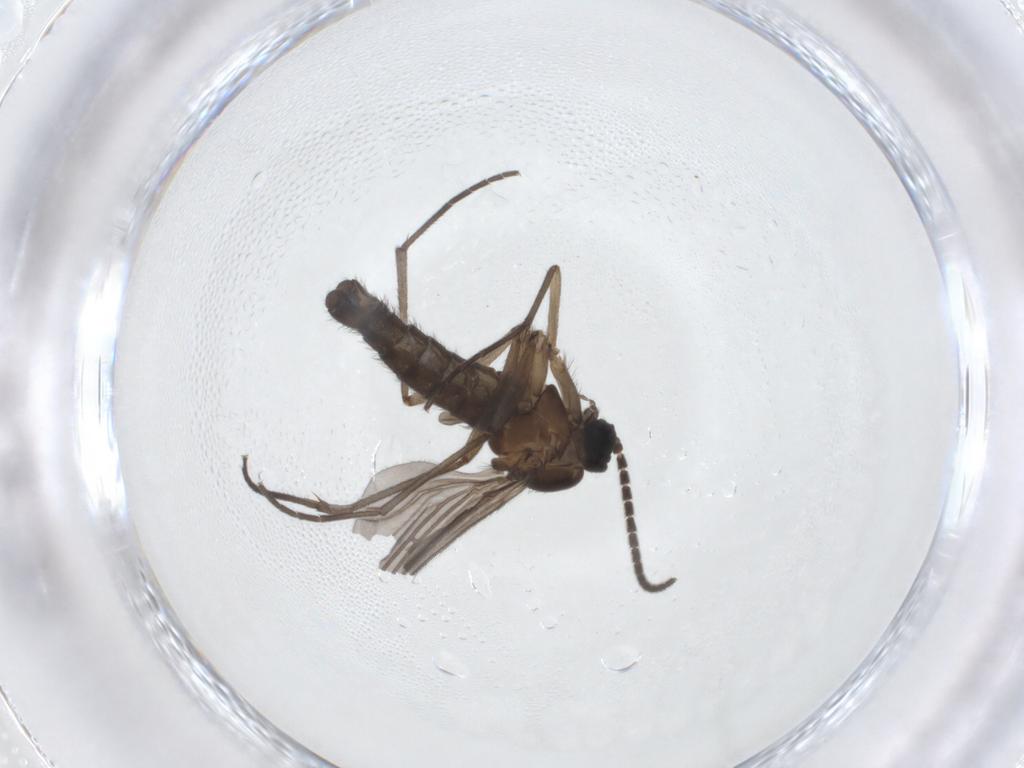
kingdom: Animalia
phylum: Arthropoda
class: Insecta
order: Diptera
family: Sciaridae
